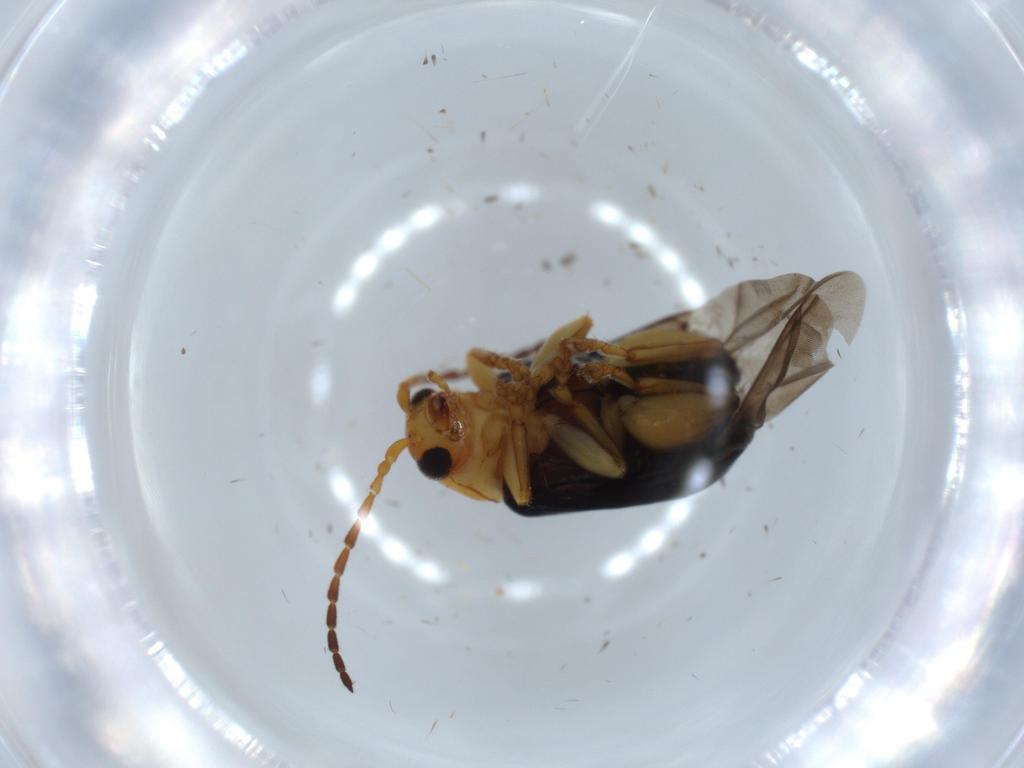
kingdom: Animalia
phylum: Arthropoda
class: Insecta
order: Coleoptera
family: Chrysomelidae
